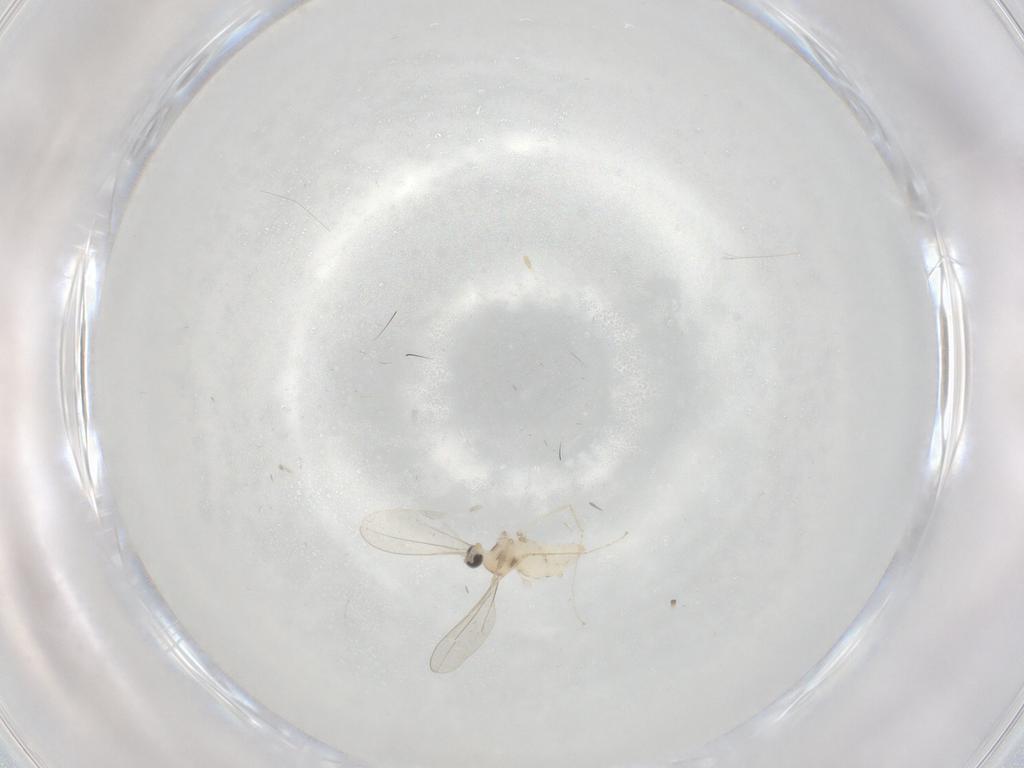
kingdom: Animalia
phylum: Arthropoda
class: Insecta
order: Diptera
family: Cecidomyiidae
